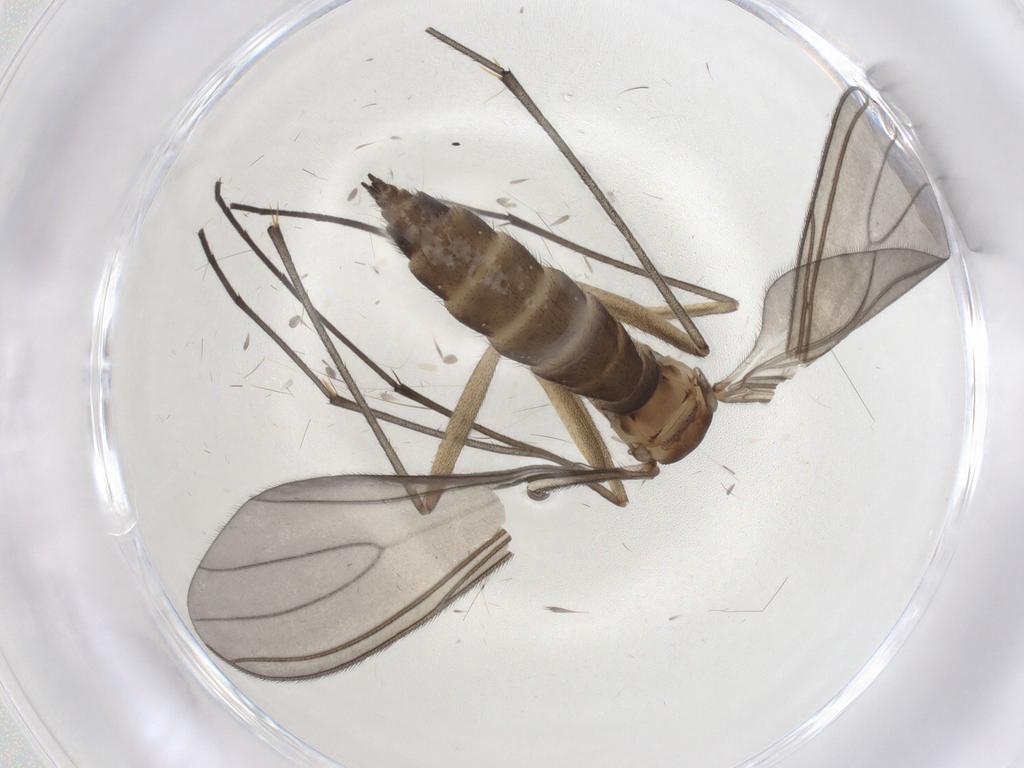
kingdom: Animalia
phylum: Arthropoda
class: Insecta
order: Diptera
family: Sciaridae
